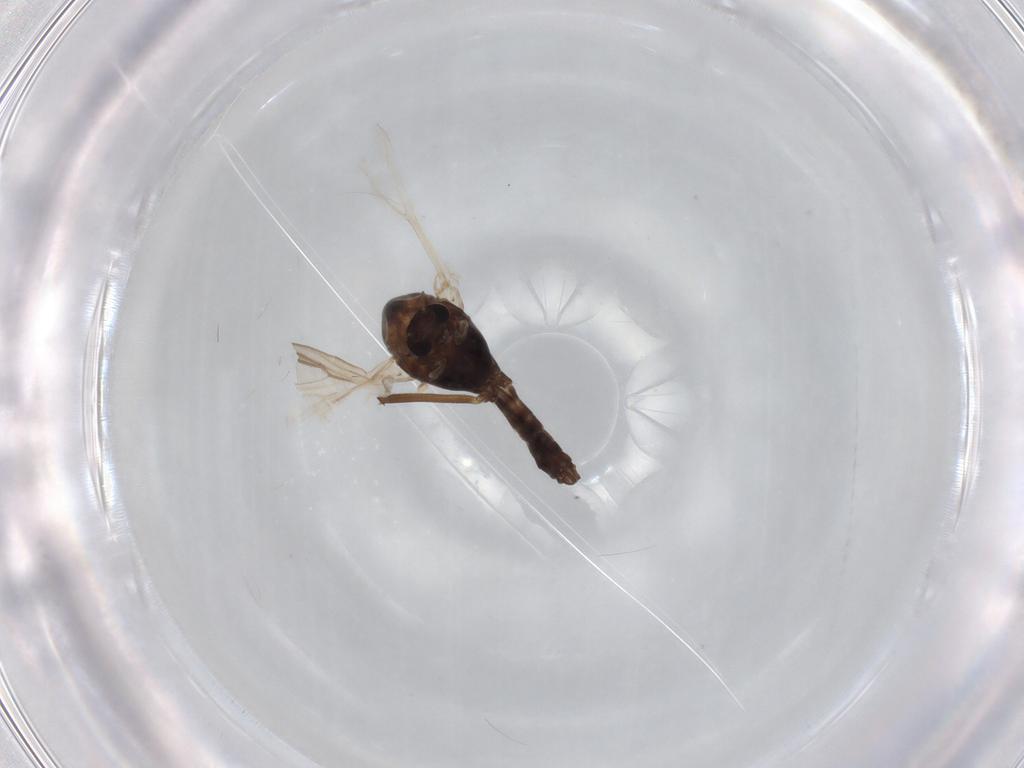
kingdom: Animalia
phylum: Arthropoda
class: Insecta
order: Diptera
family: Chironomidae
